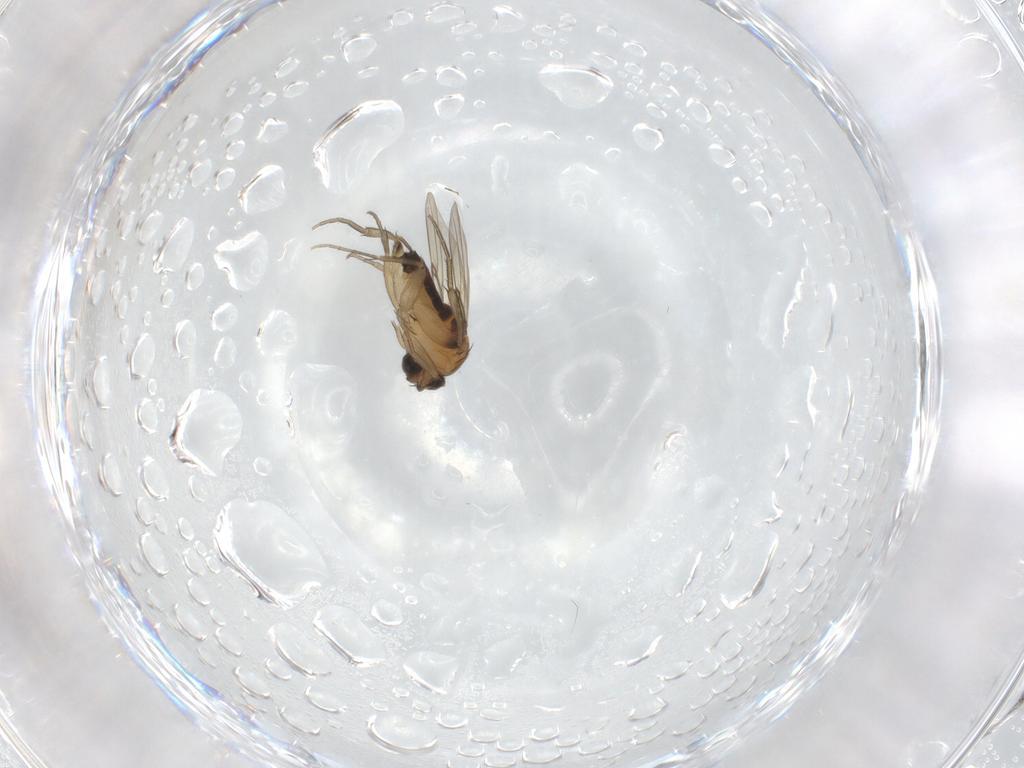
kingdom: Animalia
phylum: Arthropoda
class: Insecta
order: Diptera
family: Phoridae
